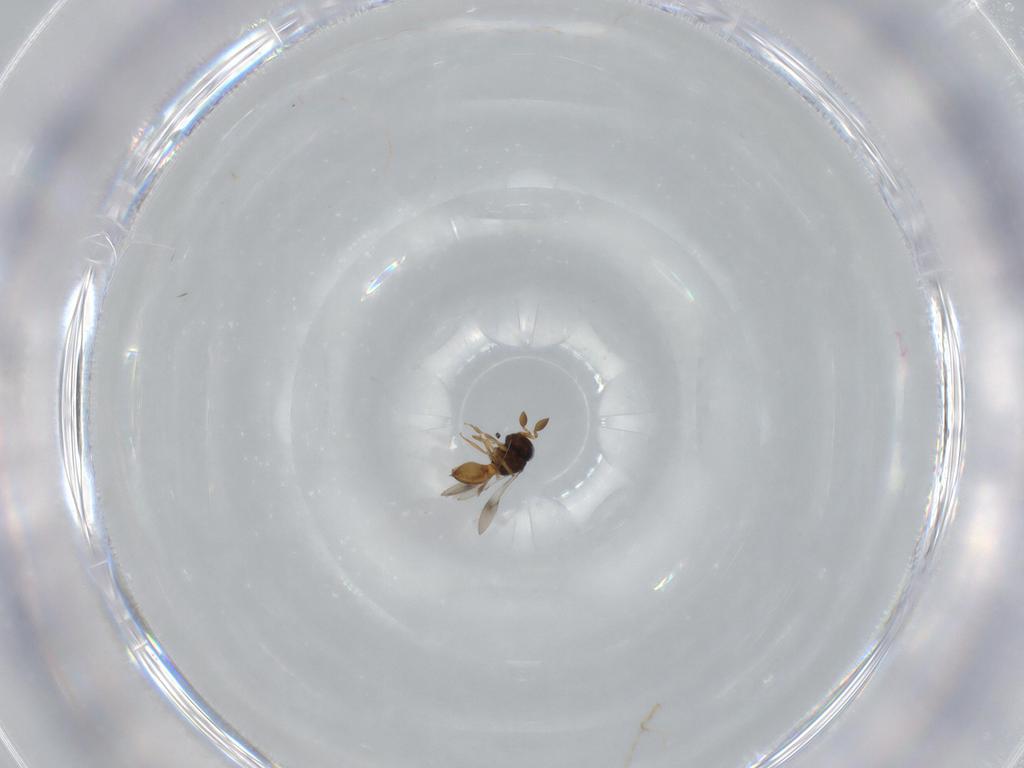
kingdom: Animalia
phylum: Arthropoda
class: Insecta
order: Hymenoptera
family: Scelionidae
